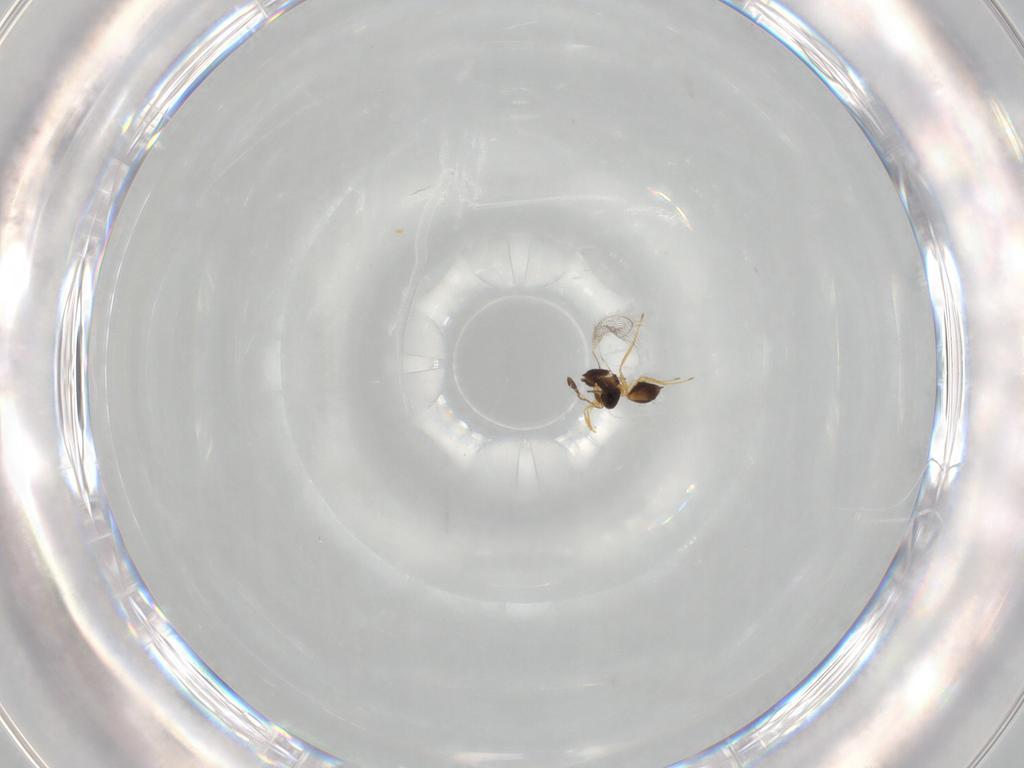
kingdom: Animalia
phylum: Arthropoda
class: Insecta
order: Hymenoptera
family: Mymaridae
